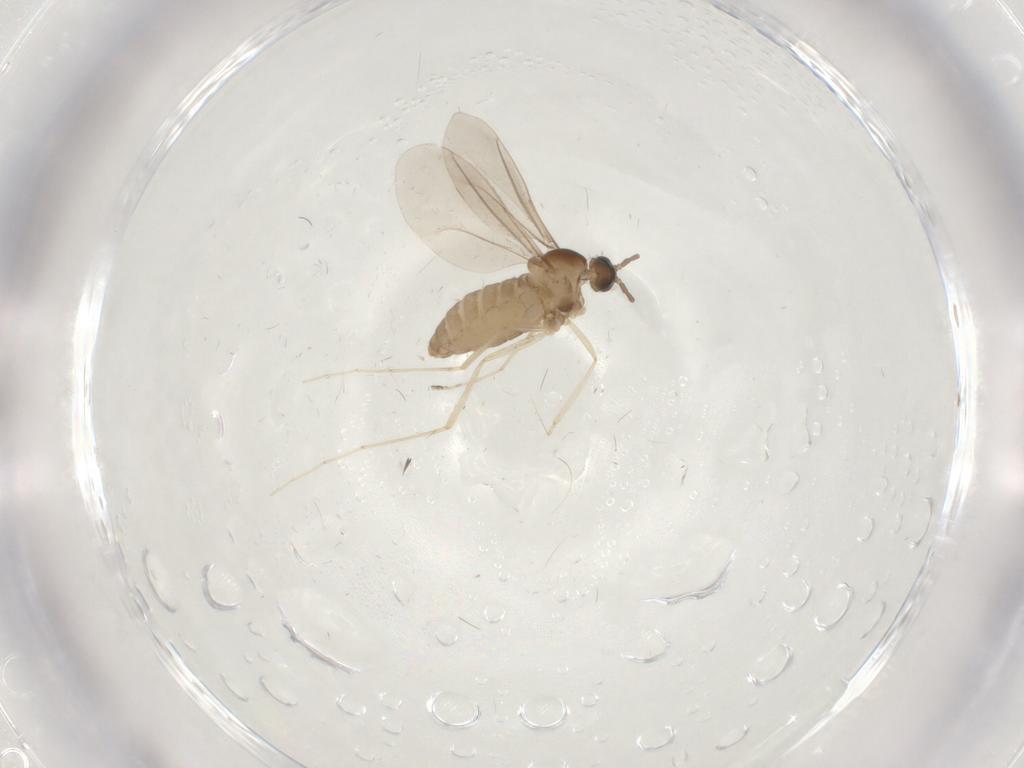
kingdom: Animalia
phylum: Arthropoda
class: Insecta
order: Diptera
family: Cecidomyiidae
